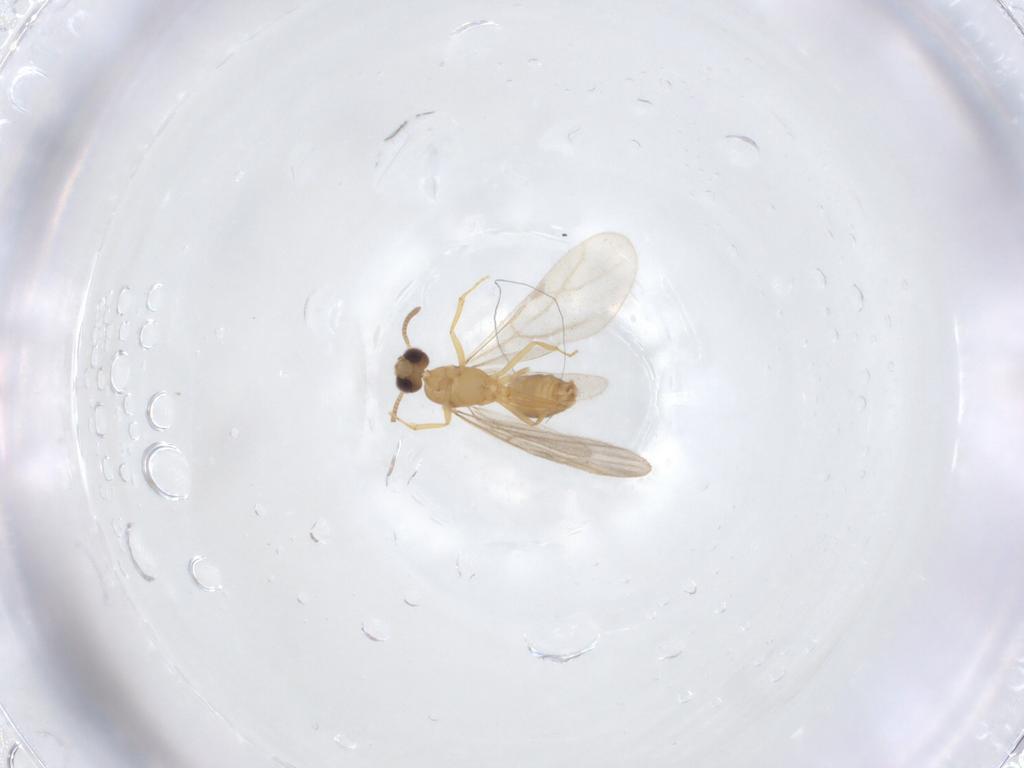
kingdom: Animalia
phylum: Arthropoda
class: Insecta
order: Hymenoptera
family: Formicidae
